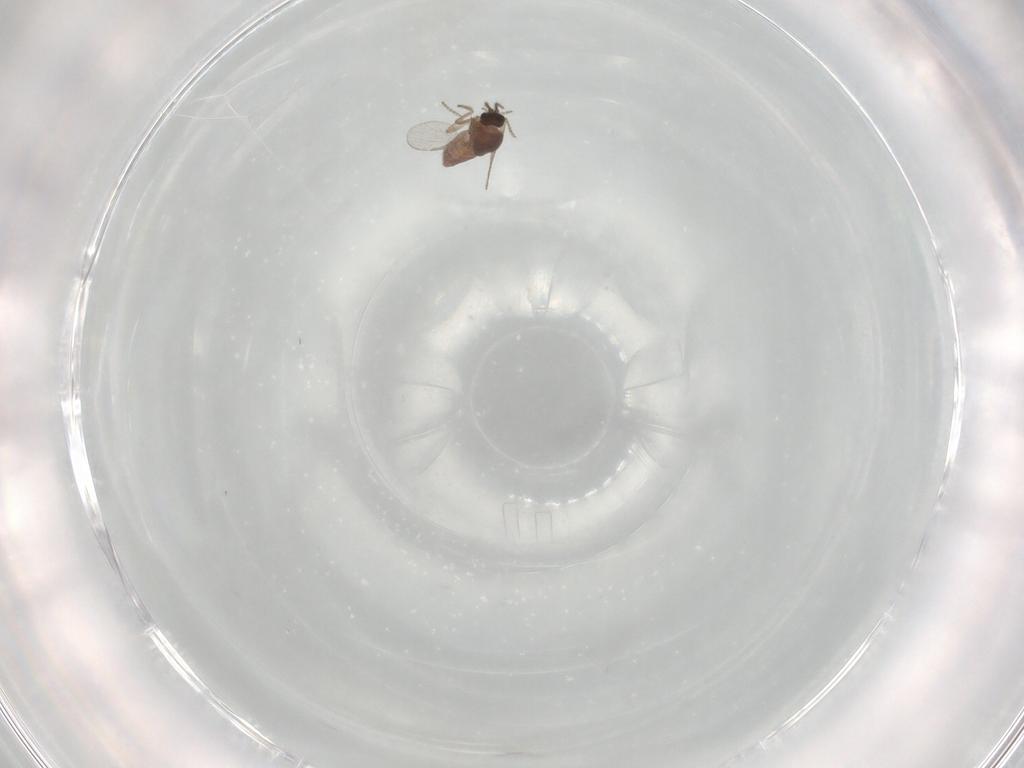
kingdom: Animalia
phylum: Arthropoda
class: Insecta
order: Diptera
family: Ceratopogonidae
